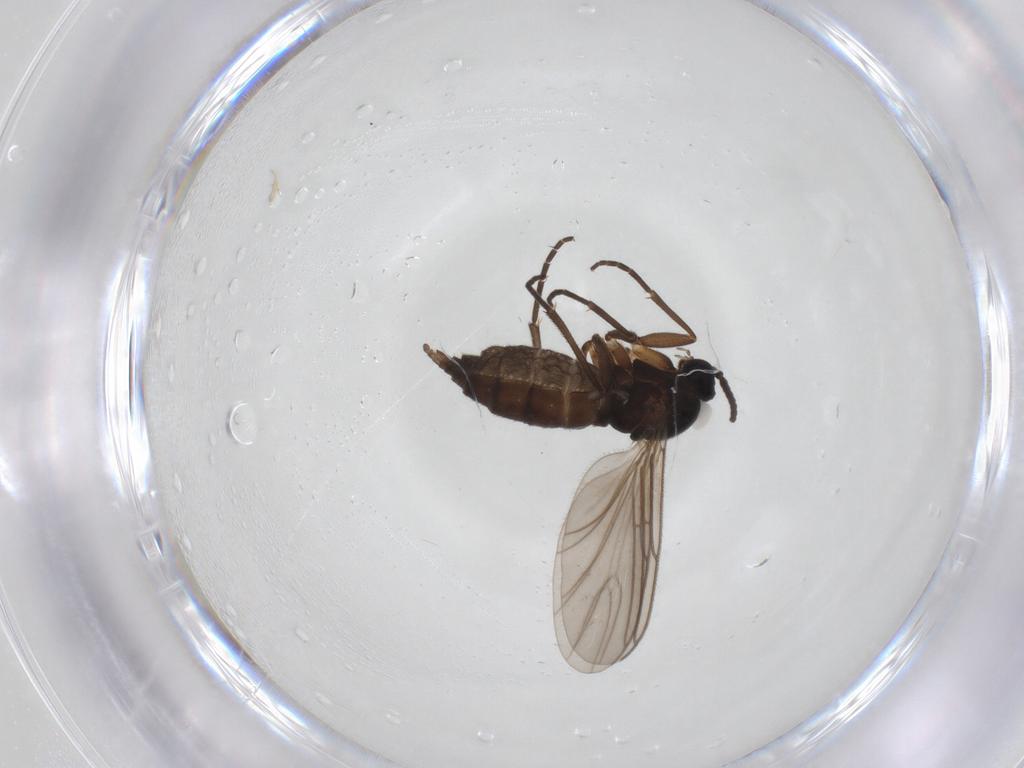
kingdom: Animalia
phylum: Arthropoda
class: Insecta
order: Diptera
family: Sciaridae
